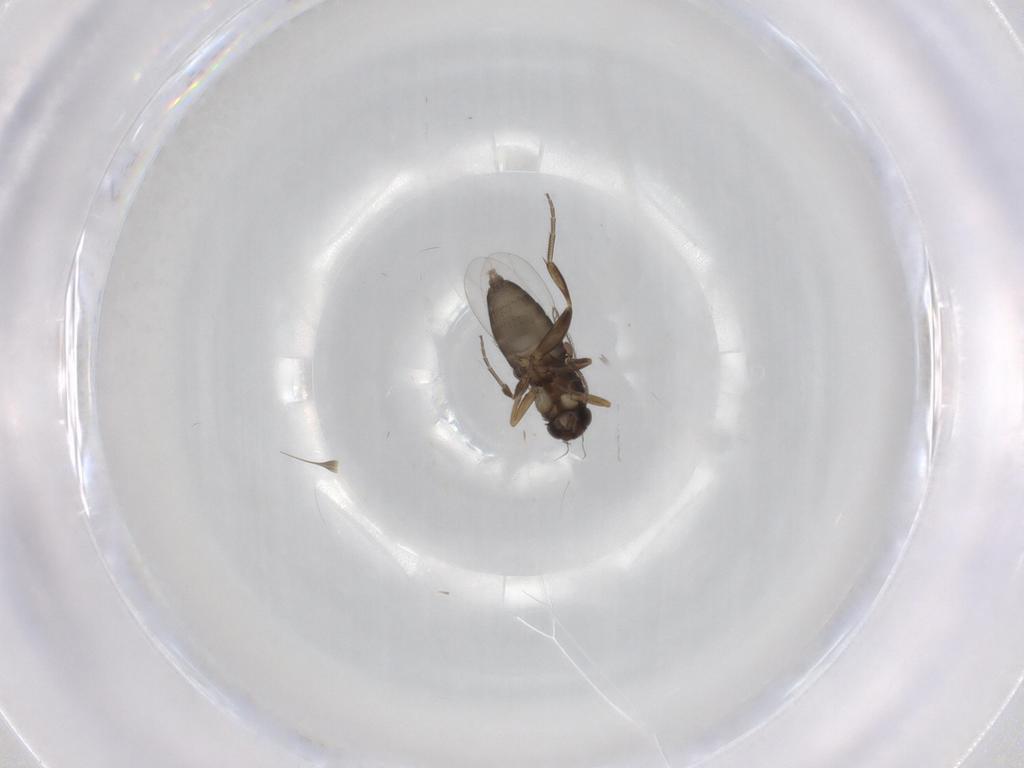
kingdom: Animalia
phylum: Arthropoda
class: Insecta
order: Diptera
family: Phoridae
